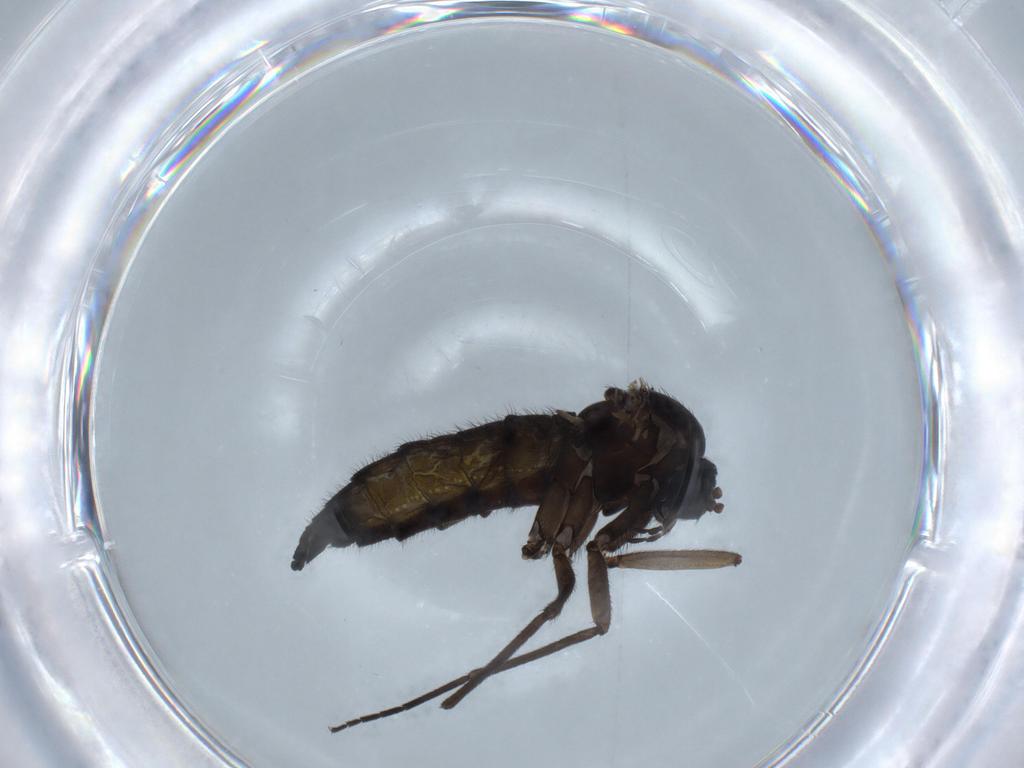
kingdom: Animalia
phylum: Arthropoda
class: Insecta
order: Diptera
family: Sciaridae
